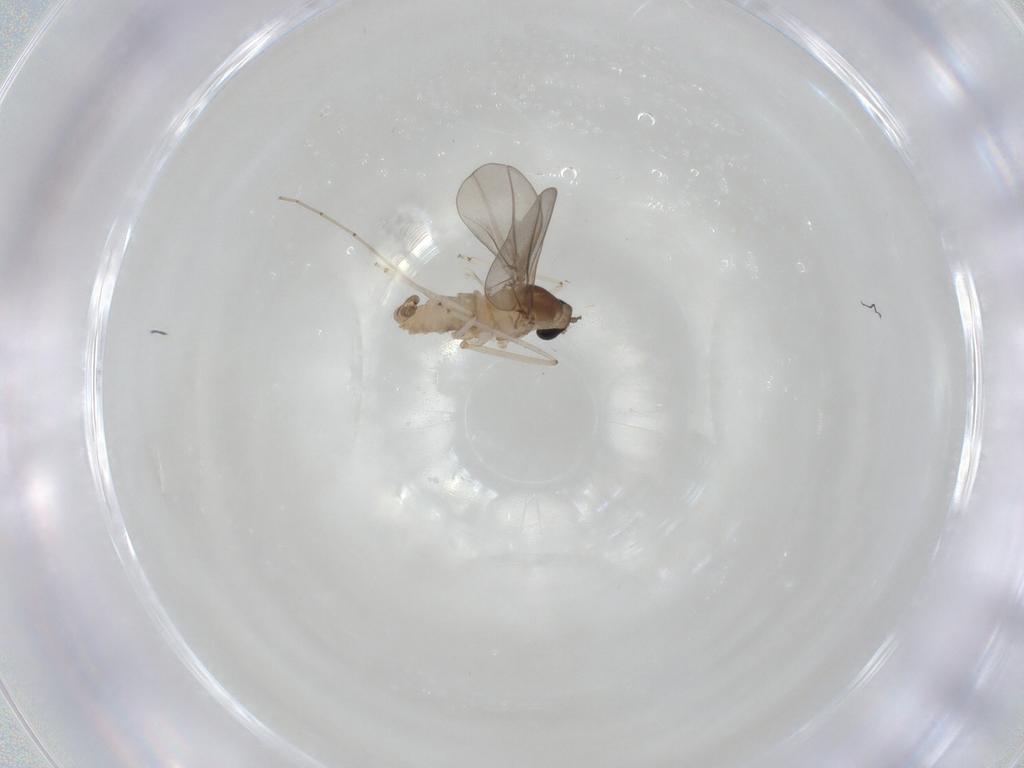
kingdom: Animalia
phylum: Arthropoda
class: Insecta
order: Diptera
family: Cecidomyiidae
